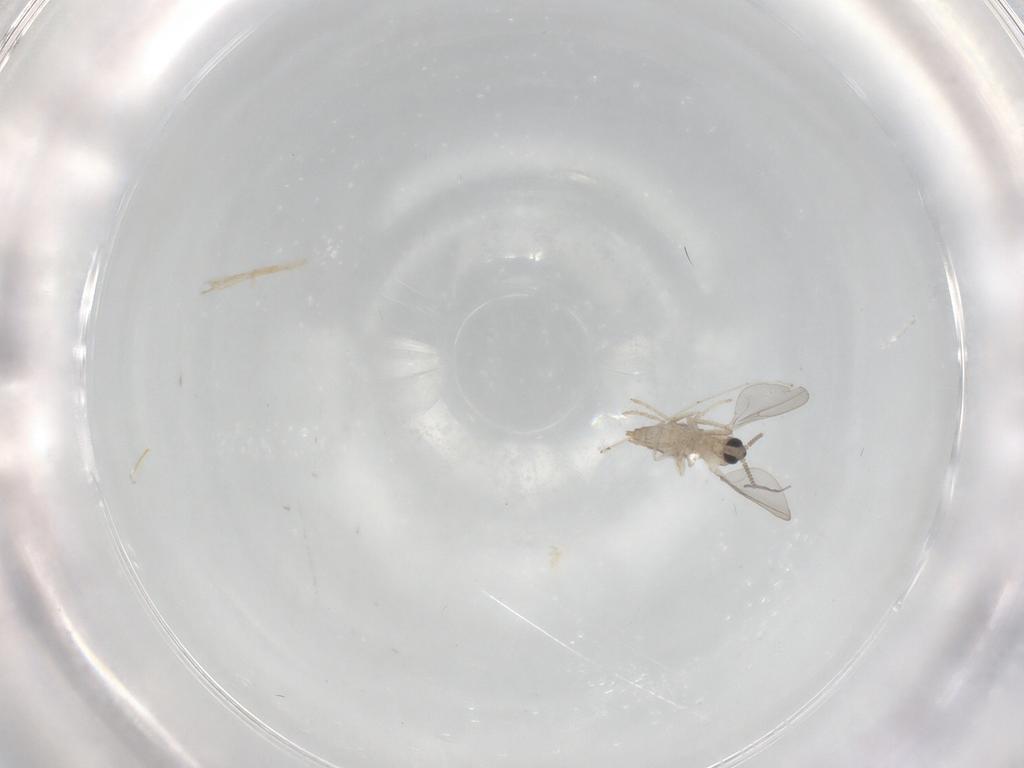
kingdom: Animalia
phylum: Arthropoda
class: Insecta
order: Diptera
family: Cecidomyiidae
